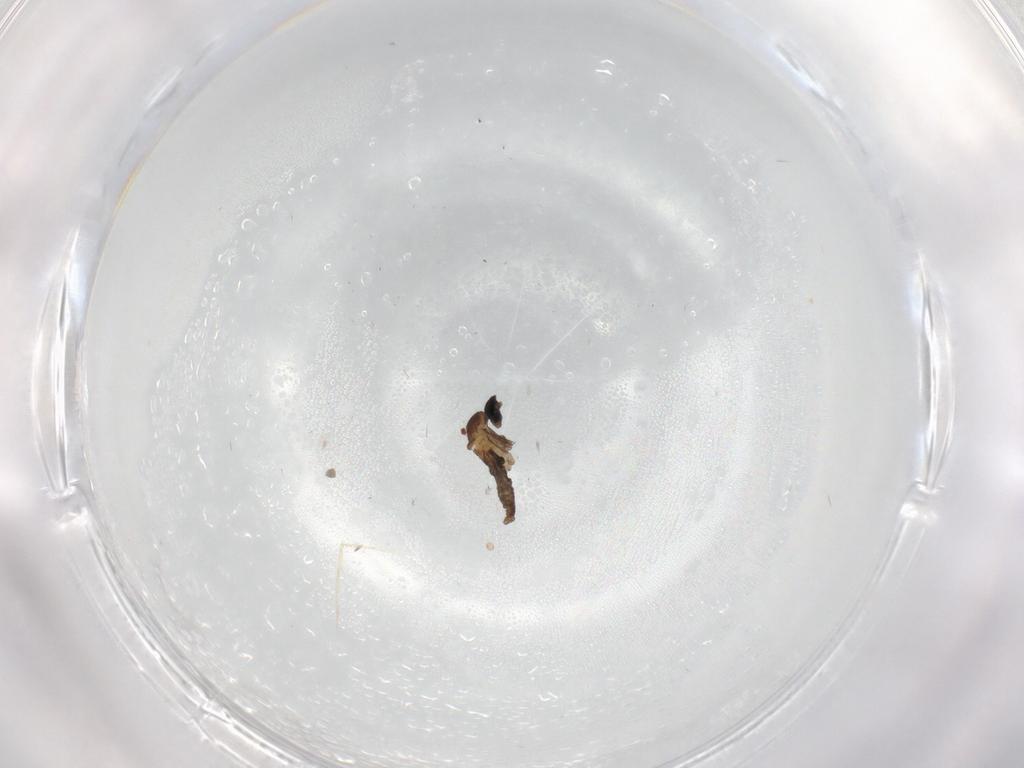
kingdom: Animalia
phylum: Arthropoda
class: Insecta
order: Diptera
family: Cecidomyiidae
